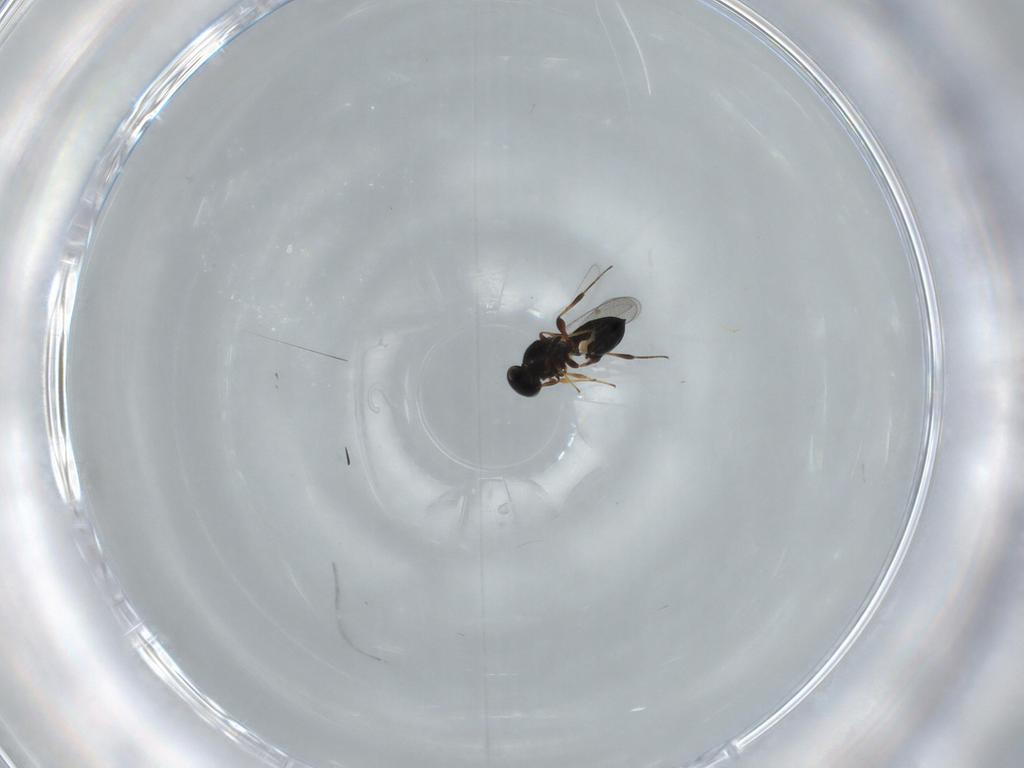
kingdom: Animalia
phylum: Arthropoda
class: Insecta
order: Hymenoptera
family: Platygastridae
